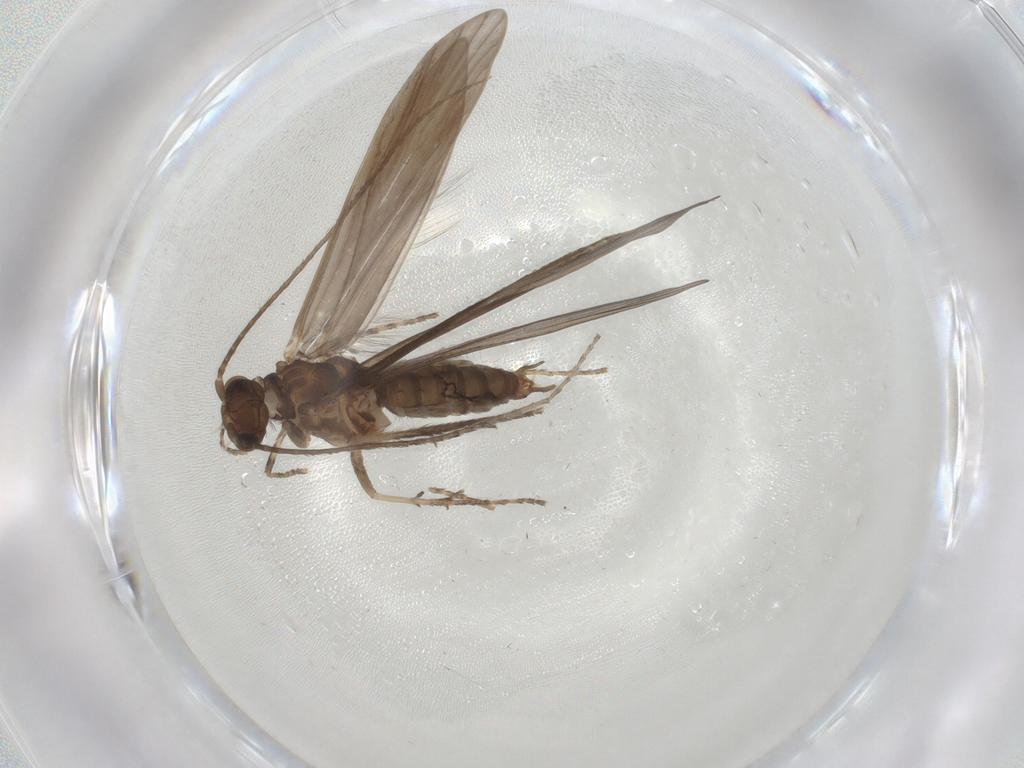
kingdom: Animalia
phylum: Arthropoda
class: Insecta
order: Trichoptera
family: Xiphocentronidae
